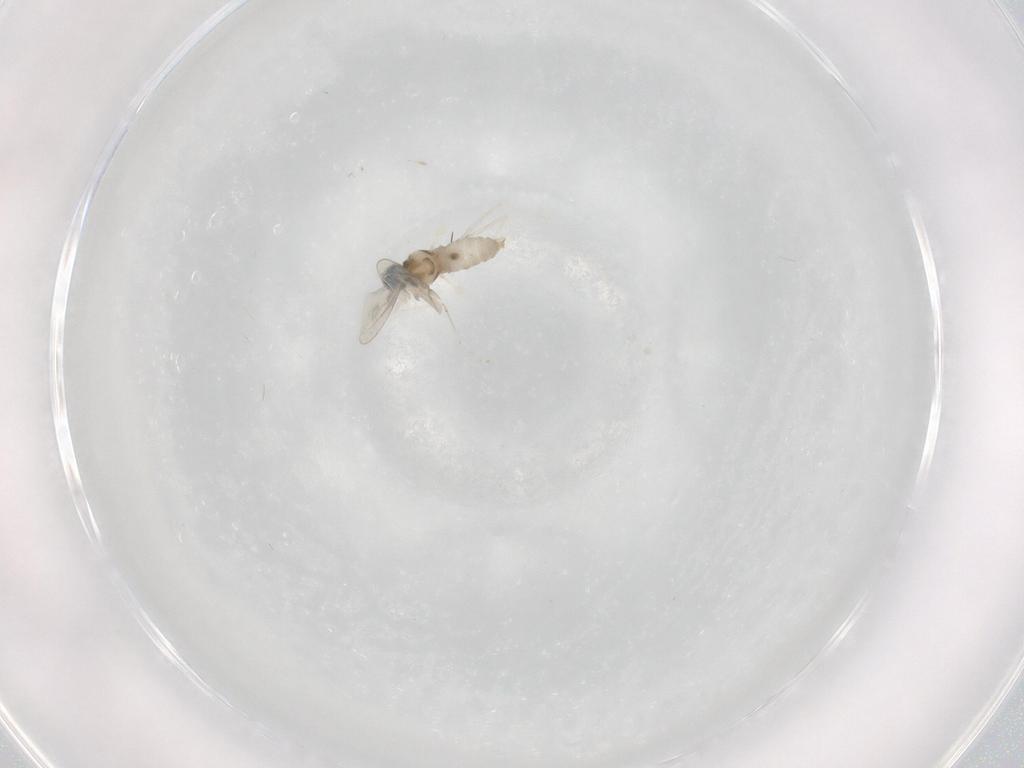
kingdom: Animalia
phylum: Arthropoda
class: Insecta
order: Diptera
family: Cecidomyiidae
